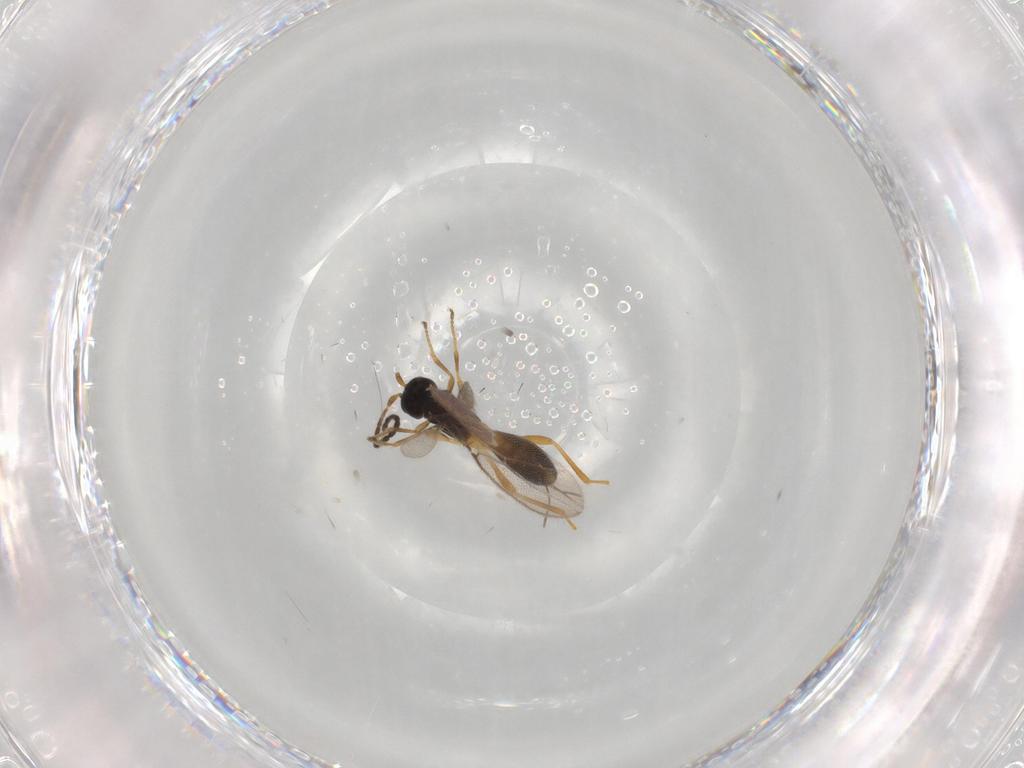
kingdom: Animalia
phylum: Arthropoda
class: Insecta
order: Hymenoptera
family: Braconidae
